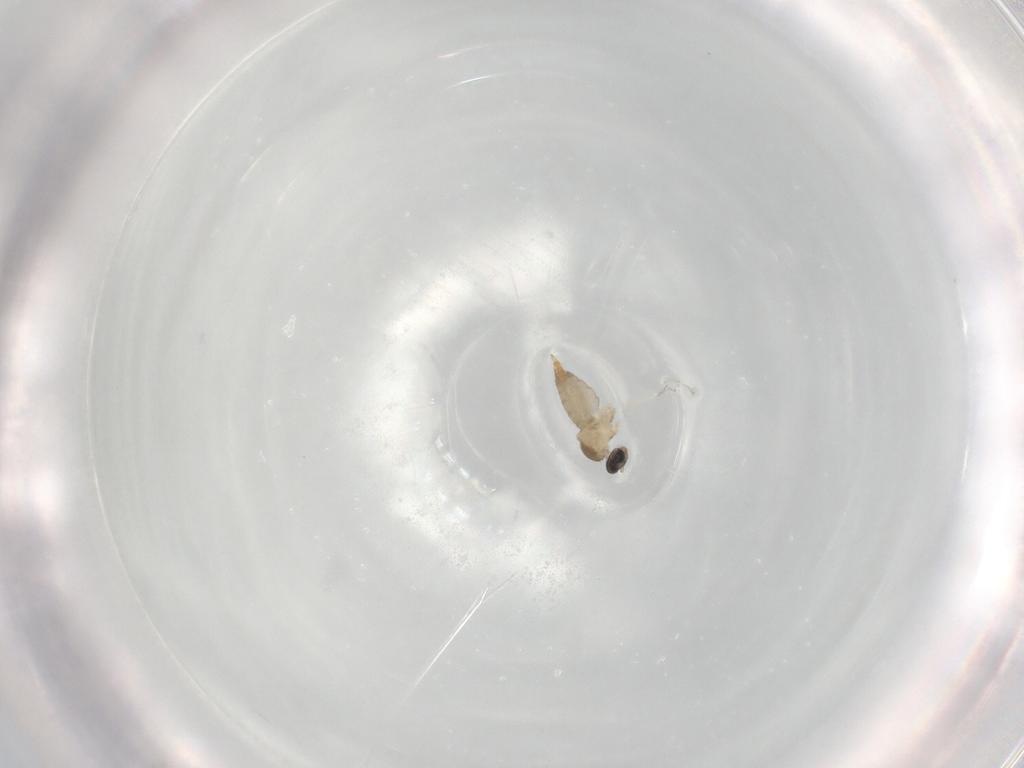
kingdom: Animalia
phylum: Arthropoda
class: Insecta
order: Diptera
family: Cecidomyiidae
